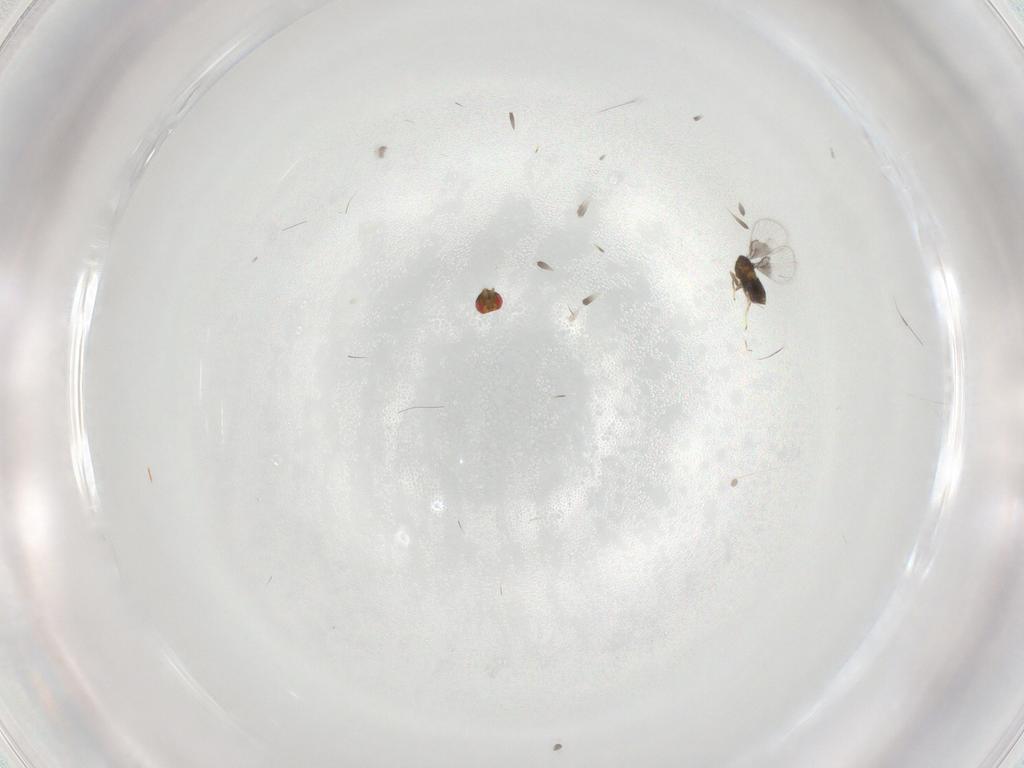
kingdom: Animalia
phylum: Arthropoda
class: Insecta
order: Hymenoptera
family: Trichogrammatidae
